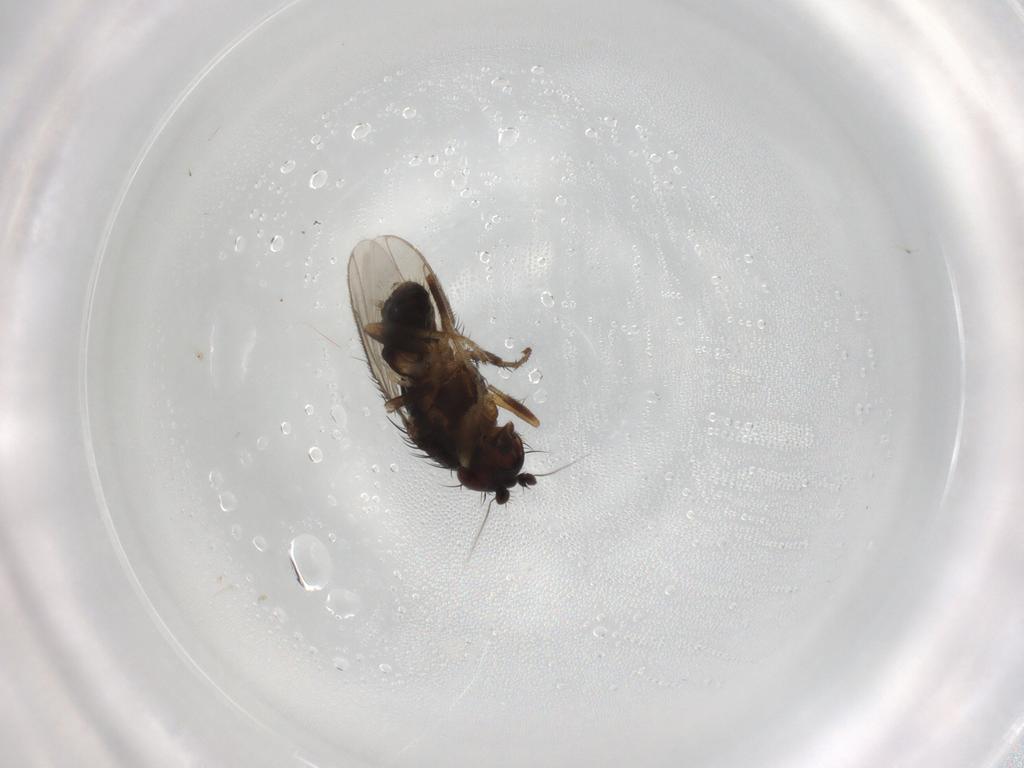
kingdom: Animalia
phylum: Arthropoda
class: Insecta
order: Diptera
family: Sphaeroceridae
